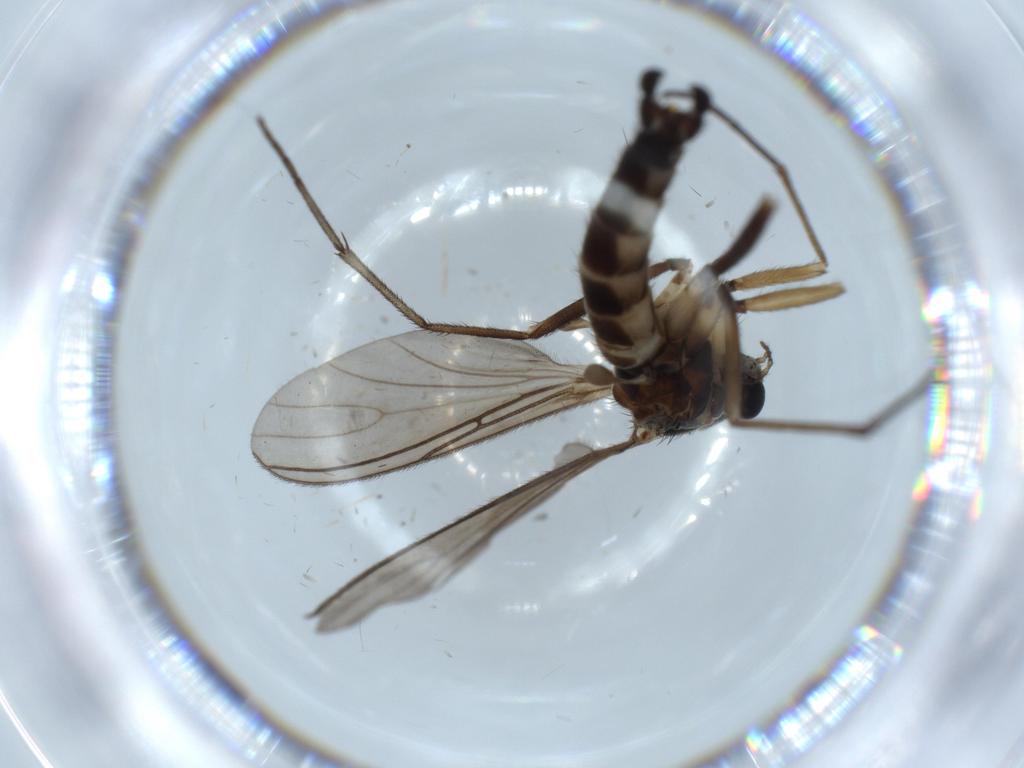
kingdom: Animalia
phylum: Arthropoda
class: Insecta
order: Diptera
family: Sciaridae
